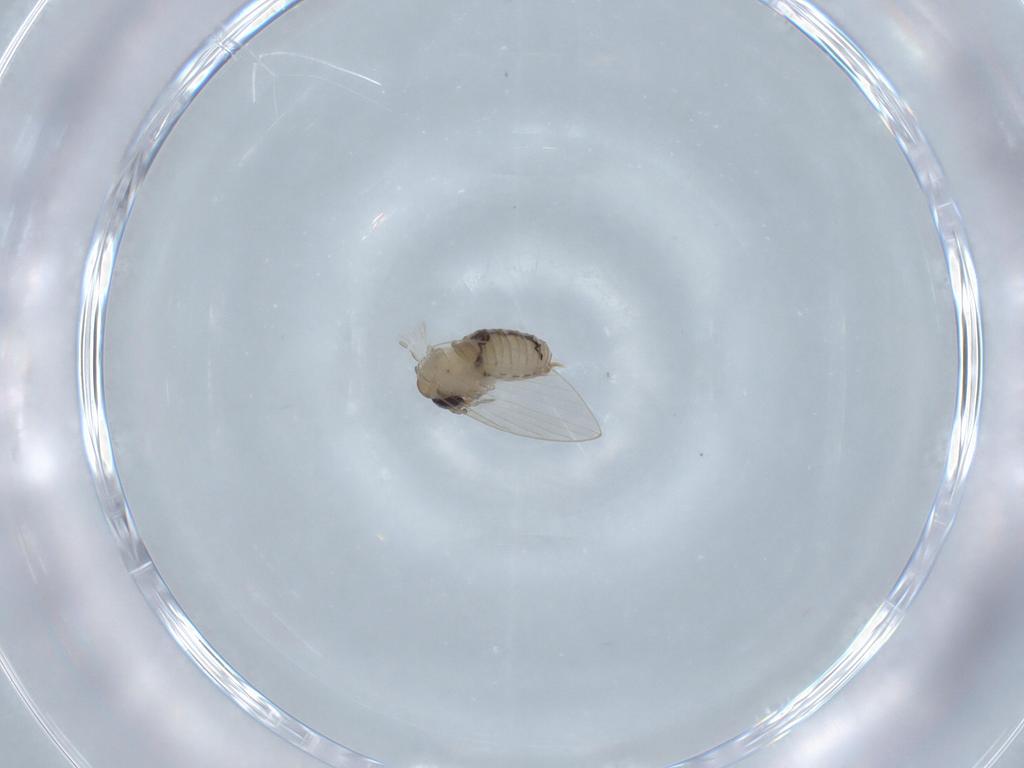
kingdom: Animalia
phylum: Arthropoda
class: Insecta
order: Diptera
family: Psychodidae
